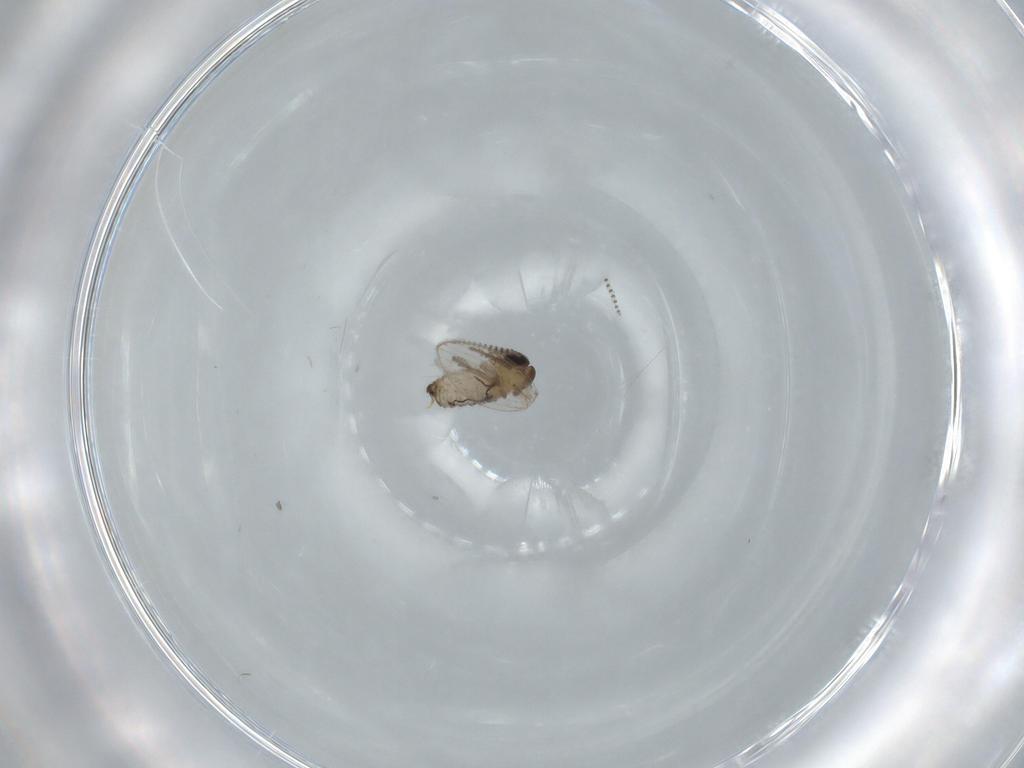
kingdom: Animalia
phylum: Arthropoda
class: Insecta
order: Diptera
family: Psychodidae
